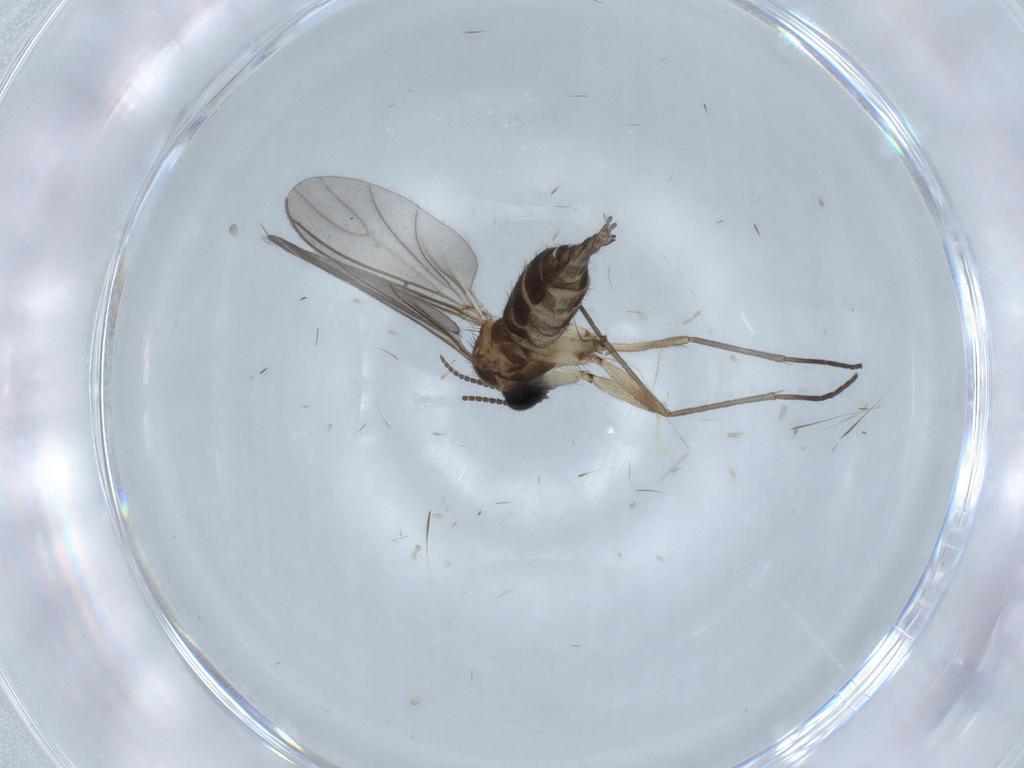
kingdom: Animalia
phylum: Arthropoda
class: Insecta
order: Diptera
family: Sciaridae
